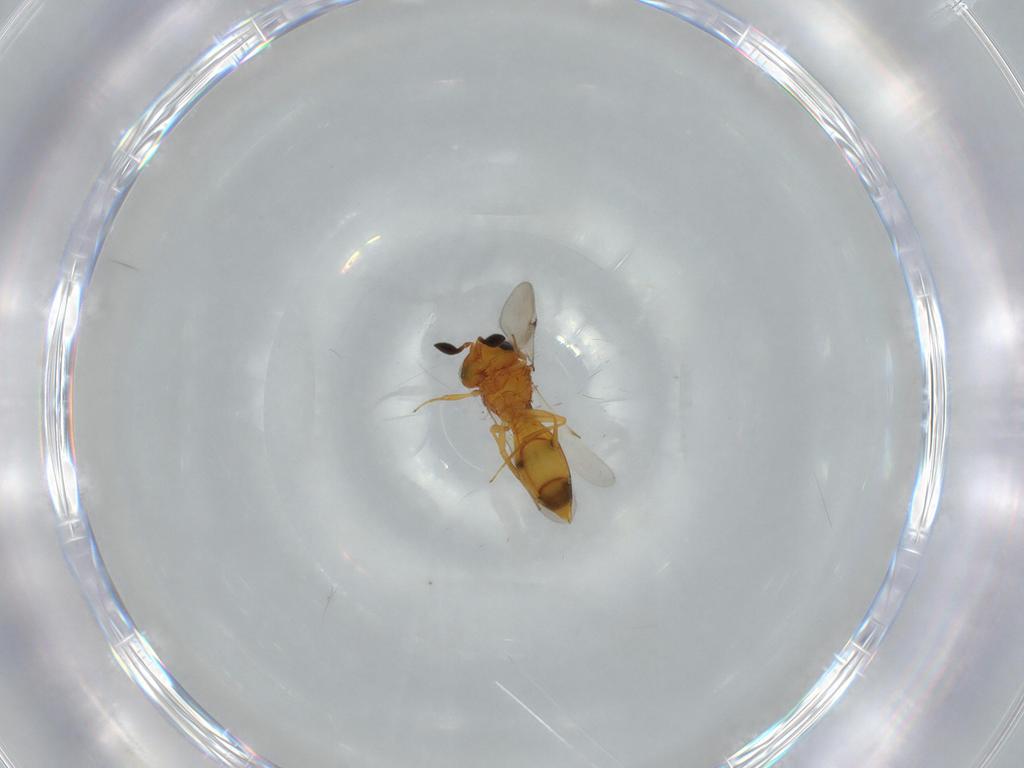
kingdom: Animalia
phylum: Arthropoda
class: Insecta
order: Hymenoptera
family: Scelionidae
